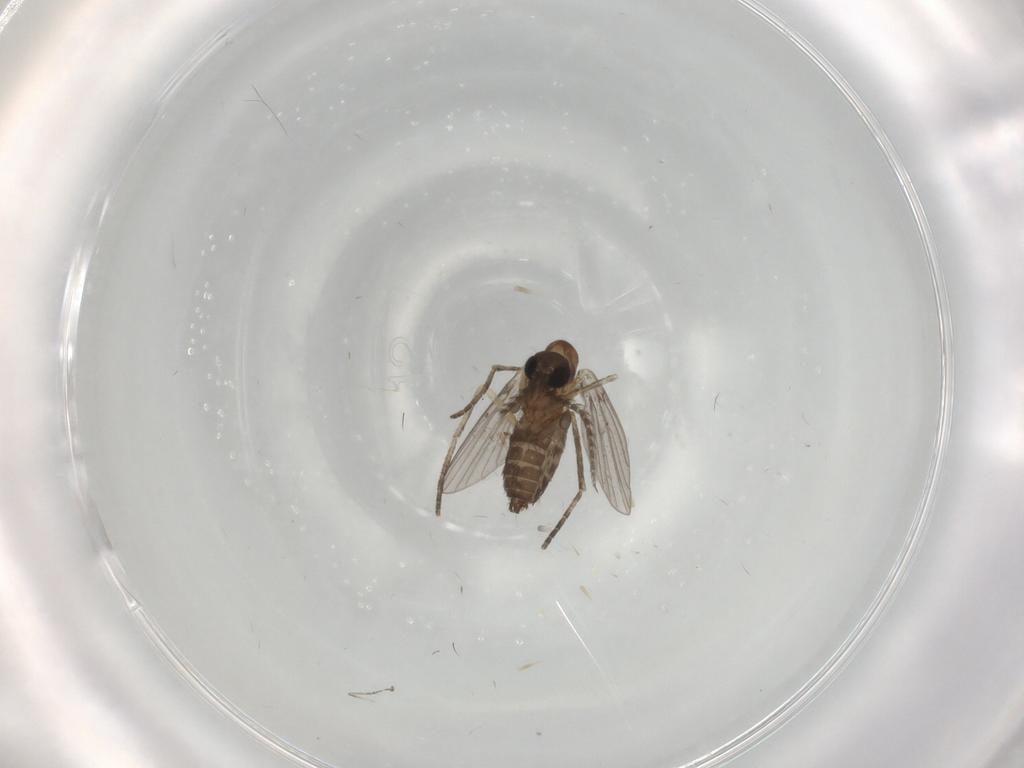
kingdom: Animalia
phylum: Arthropoda
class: Insecta
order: Diptera
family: Cecidomyiidae
